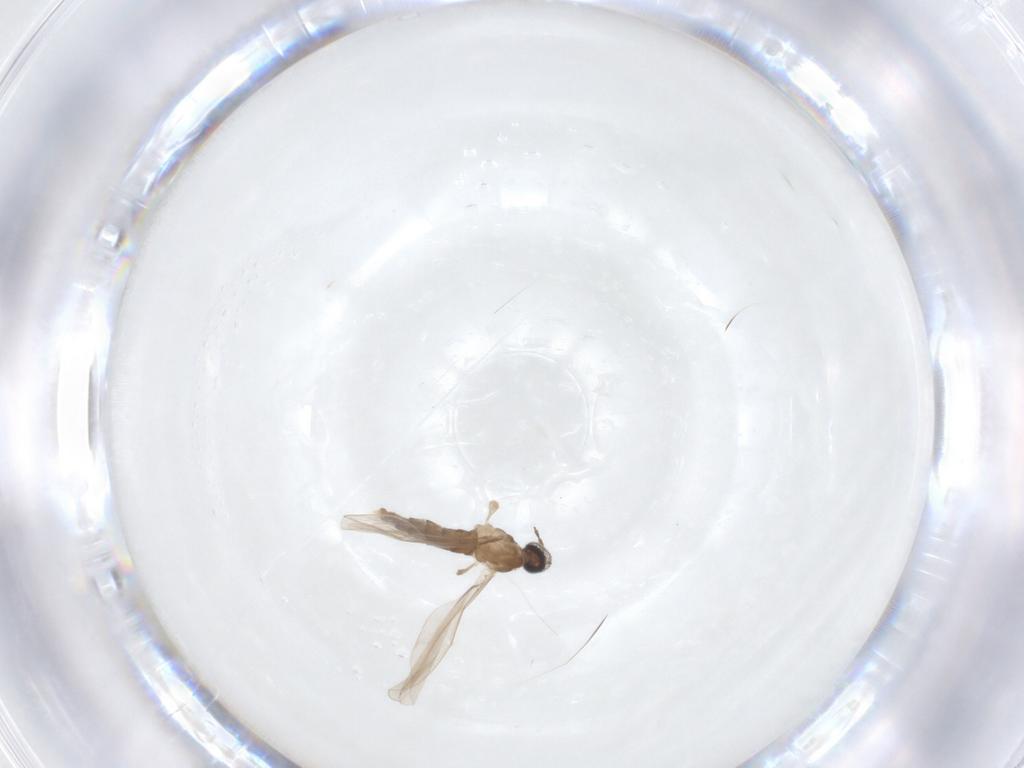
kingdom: Animalia
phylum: Arthropoda
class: Insecta
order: Diptera
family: Cecidomyiidae
